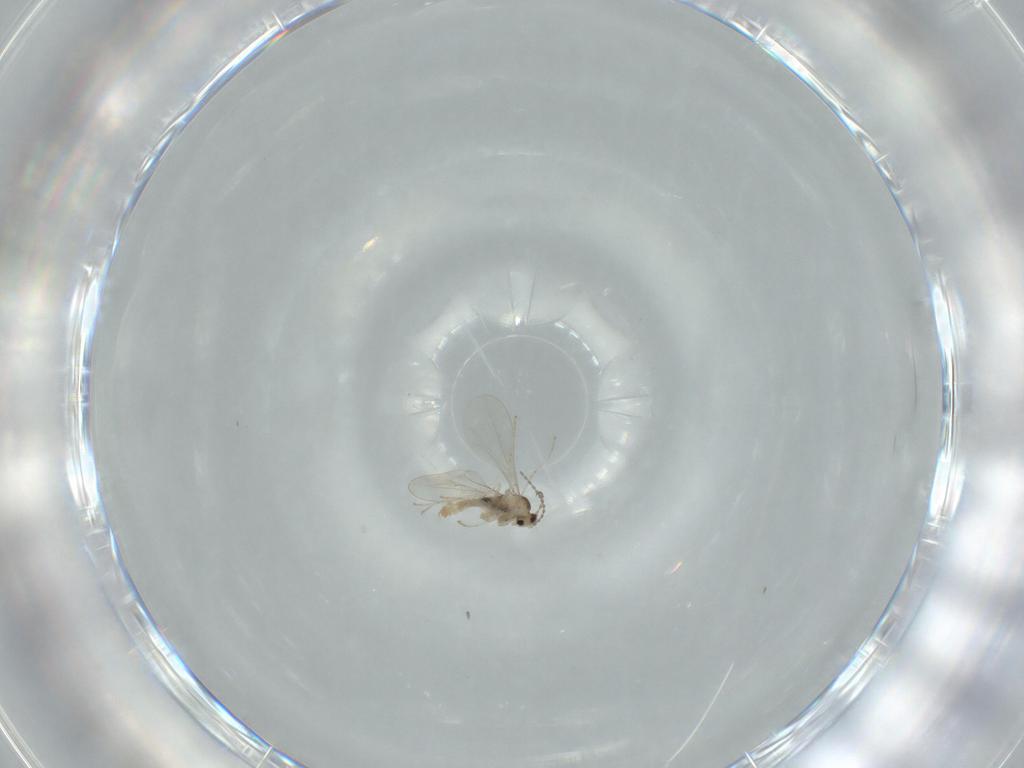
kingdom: Animalia
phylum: Arthropoda
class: Insecta
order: Diptera
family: Cecidomyiidae
